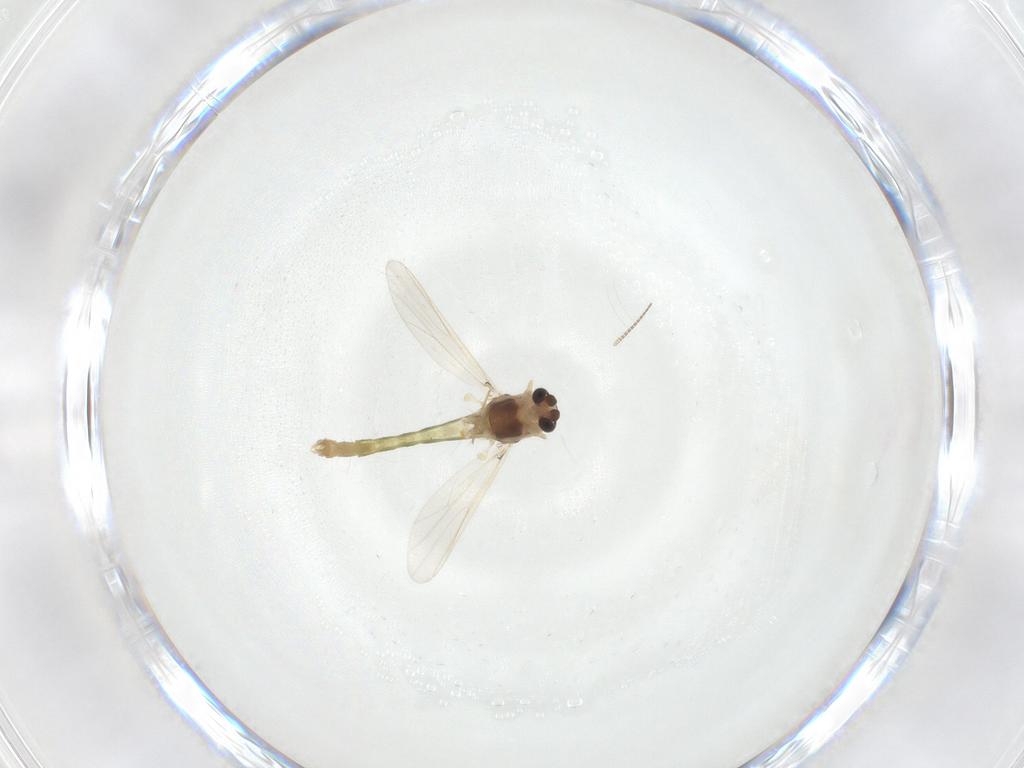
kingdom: Animalia
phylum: Arthropoda
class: Insecta
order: Diptera
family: Chironomidae
